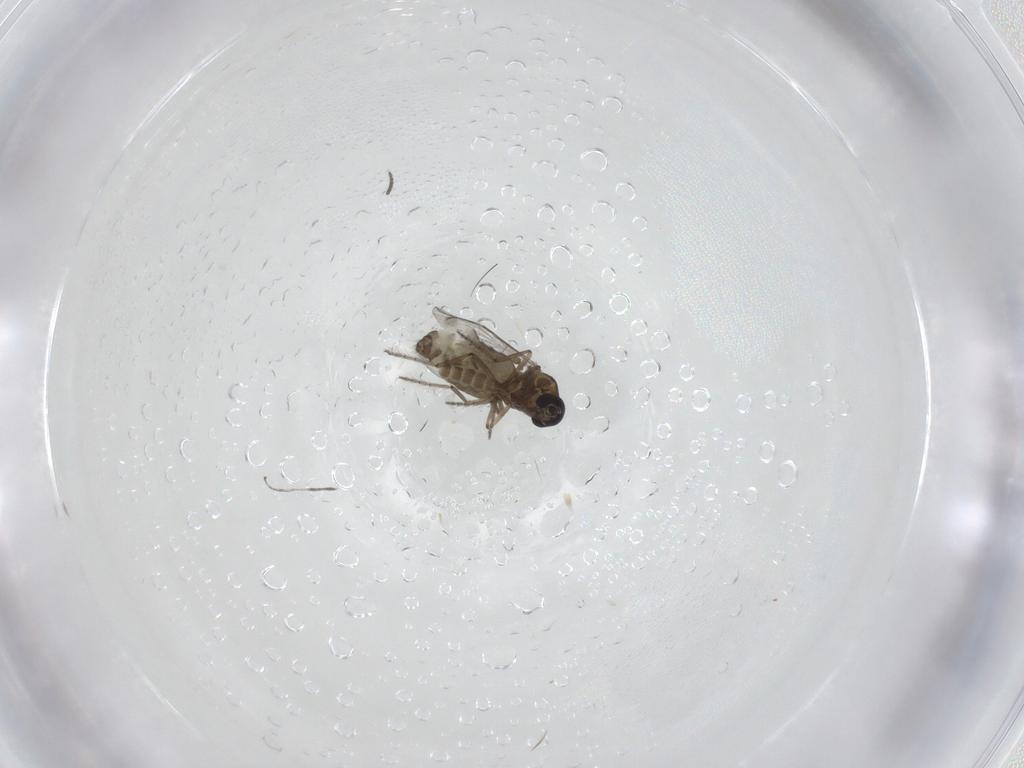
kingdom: Animalia
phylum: Arthropoda
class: Insecta
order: Diptera
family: Ceratopogonidae
